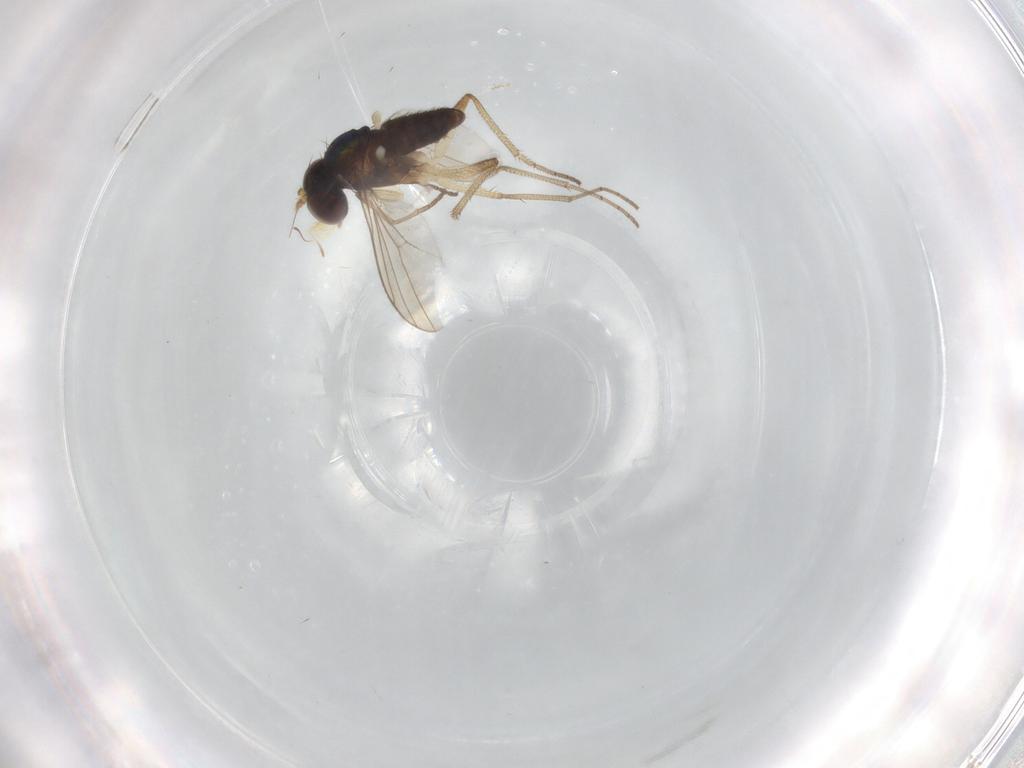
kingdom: Animalia
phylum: Arthropoda
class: Insecta
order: Diptera
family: Dolichopodidae
